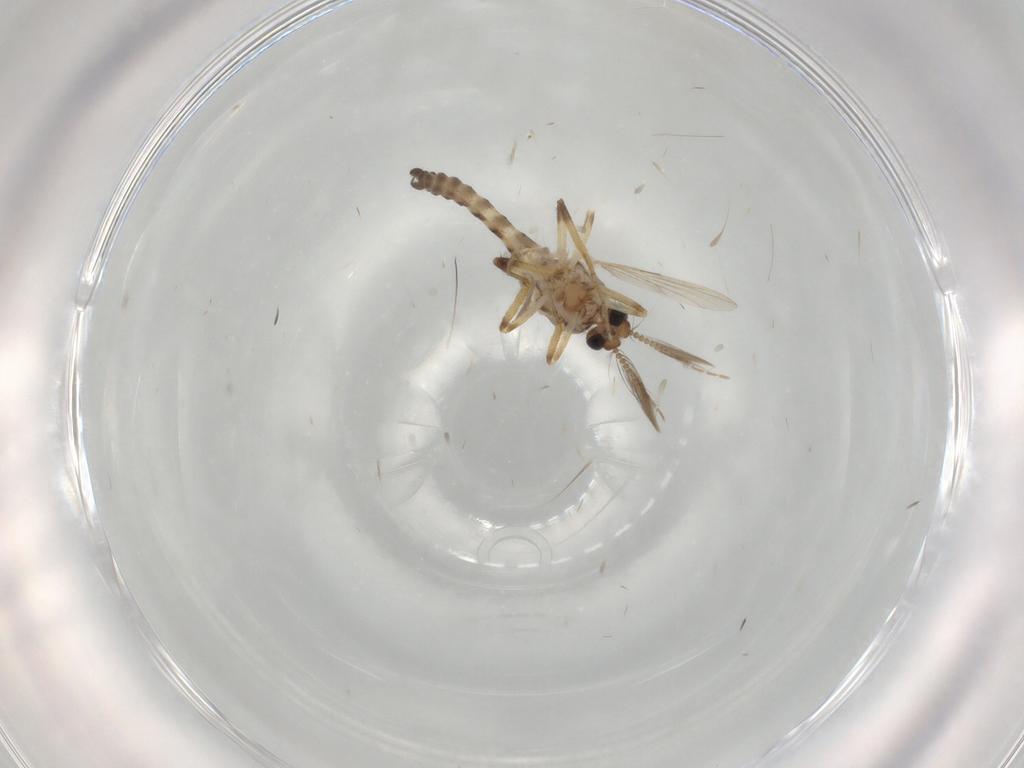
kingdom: Animalia
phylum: Arthropoda
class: Insecta
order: Diptera
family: Ceratopogonidae
